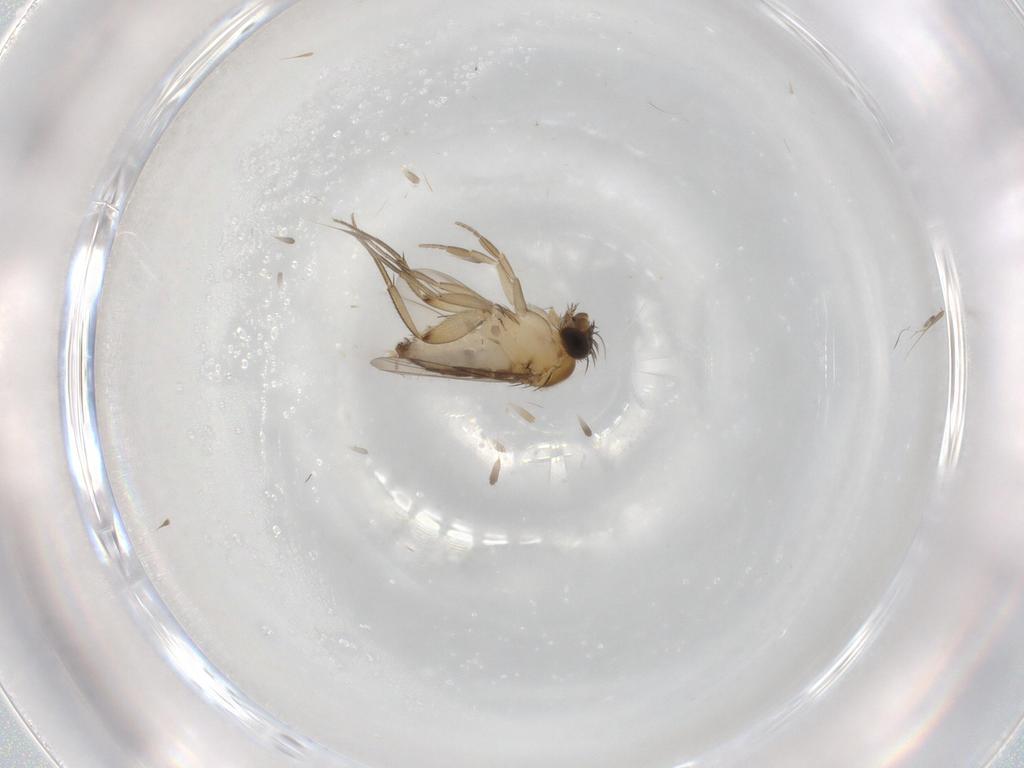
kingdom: Animalia
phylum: Arthropoda
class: Insecta
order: Diptera
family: Phoridae
